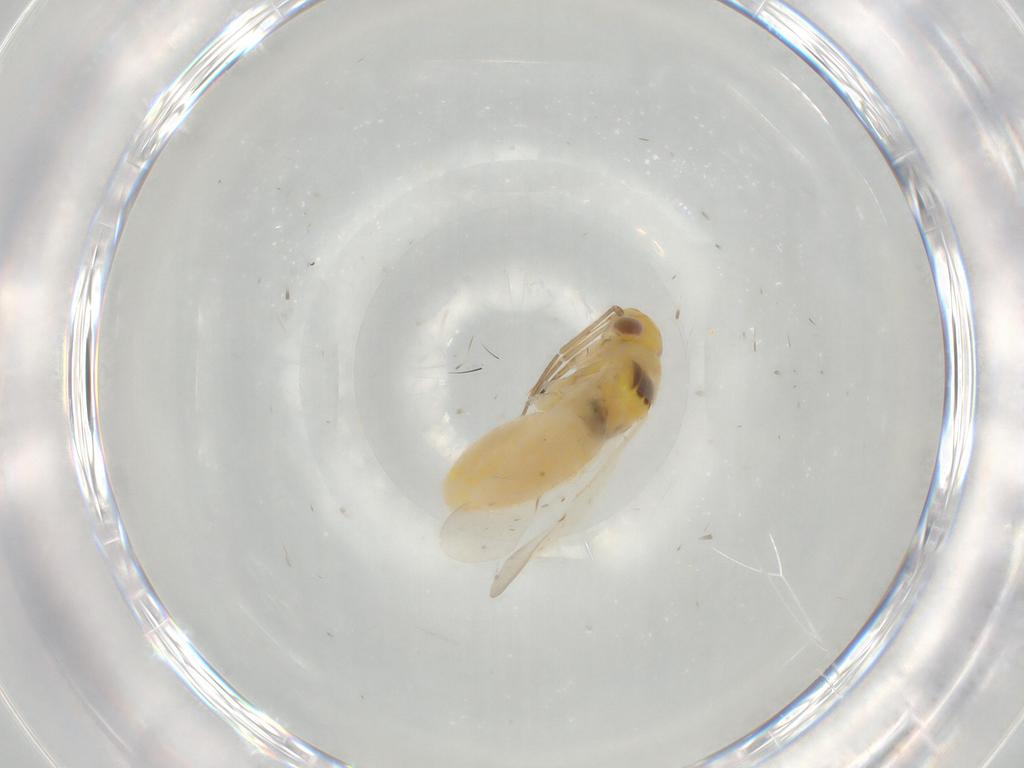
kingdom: Animalia
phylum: Arthropoda
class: Insecta
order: Hemiptera
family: Miridae
